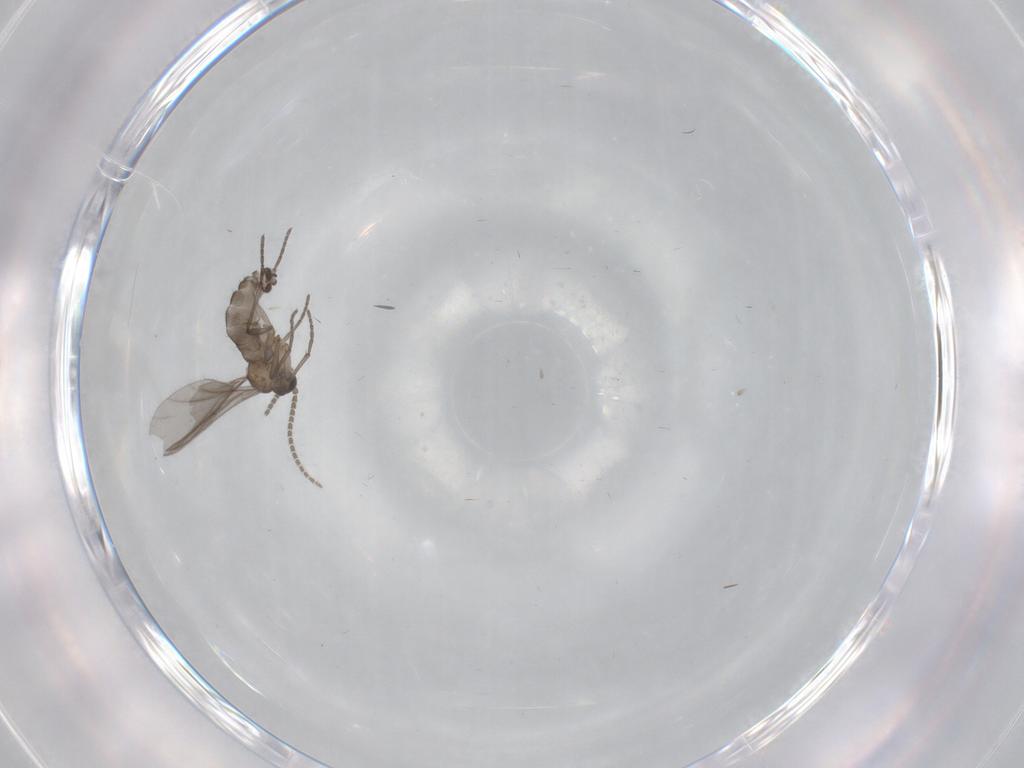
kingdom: Animalia
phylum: Arthropoda
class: Insecta
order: Diptera
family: Sciaridae
